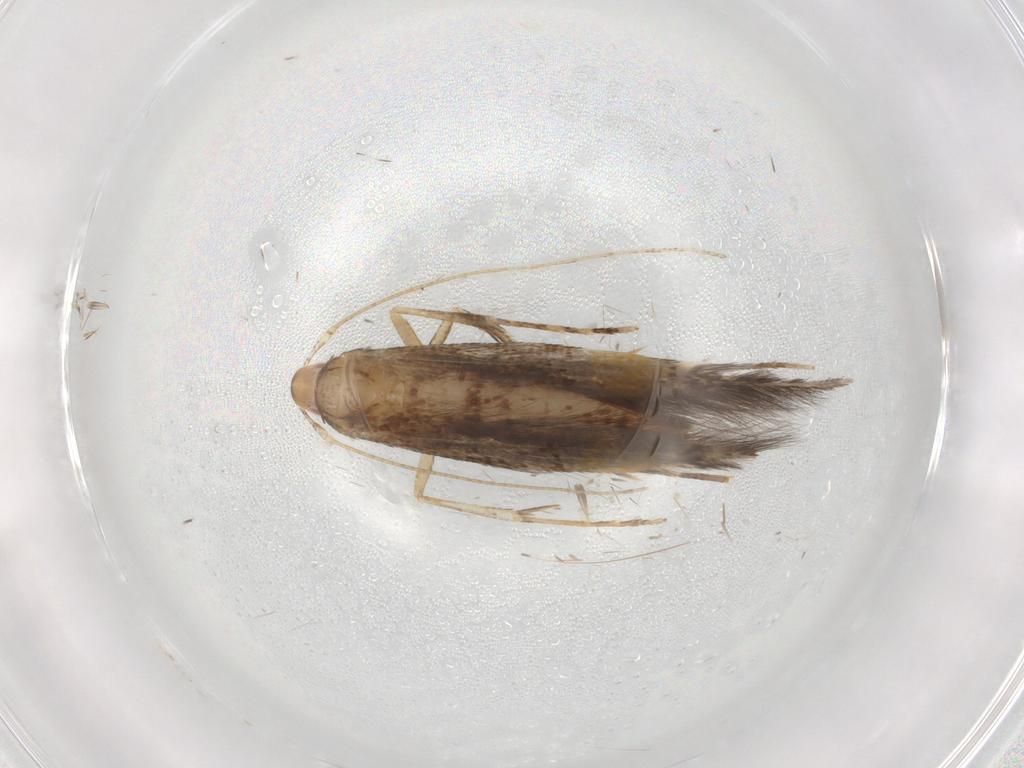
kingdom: Animalia
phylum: Arthropoda
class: Insecta
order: Lepidoptera
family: Cosmopterigidae
